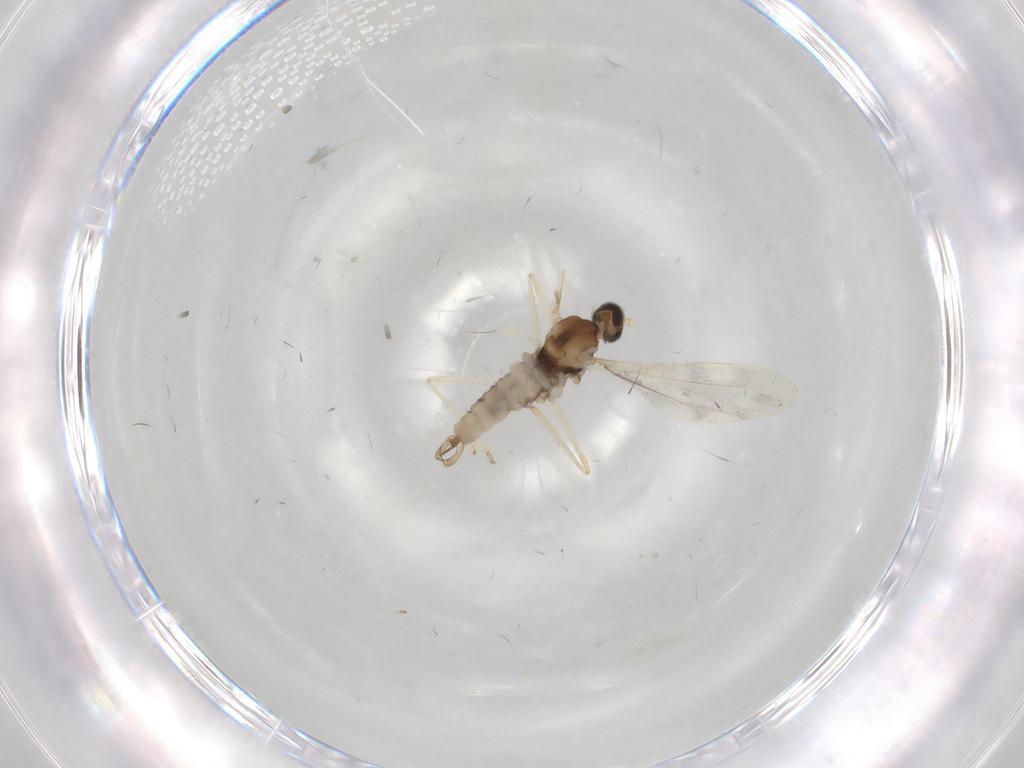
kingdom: Animalia
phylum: Arthropoda
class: Insecta
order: Diptera
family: Cecidomyiidae
